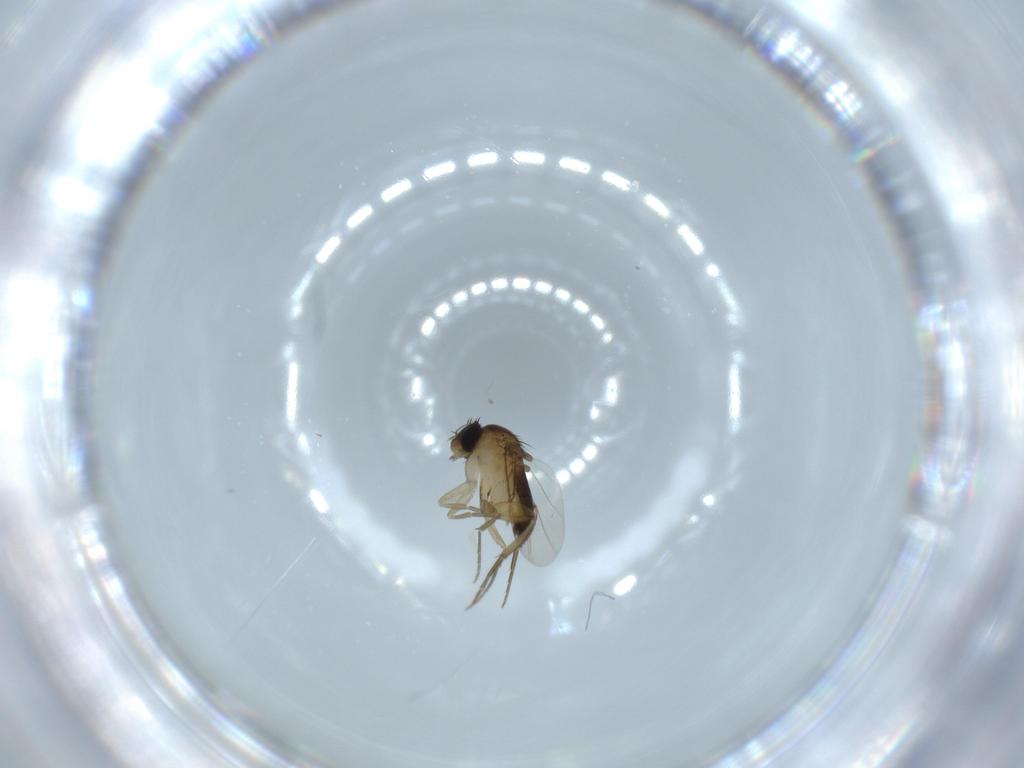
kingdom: Animalia
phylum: Arthropoda
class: Insecta
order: Diptera
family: Phoridae
